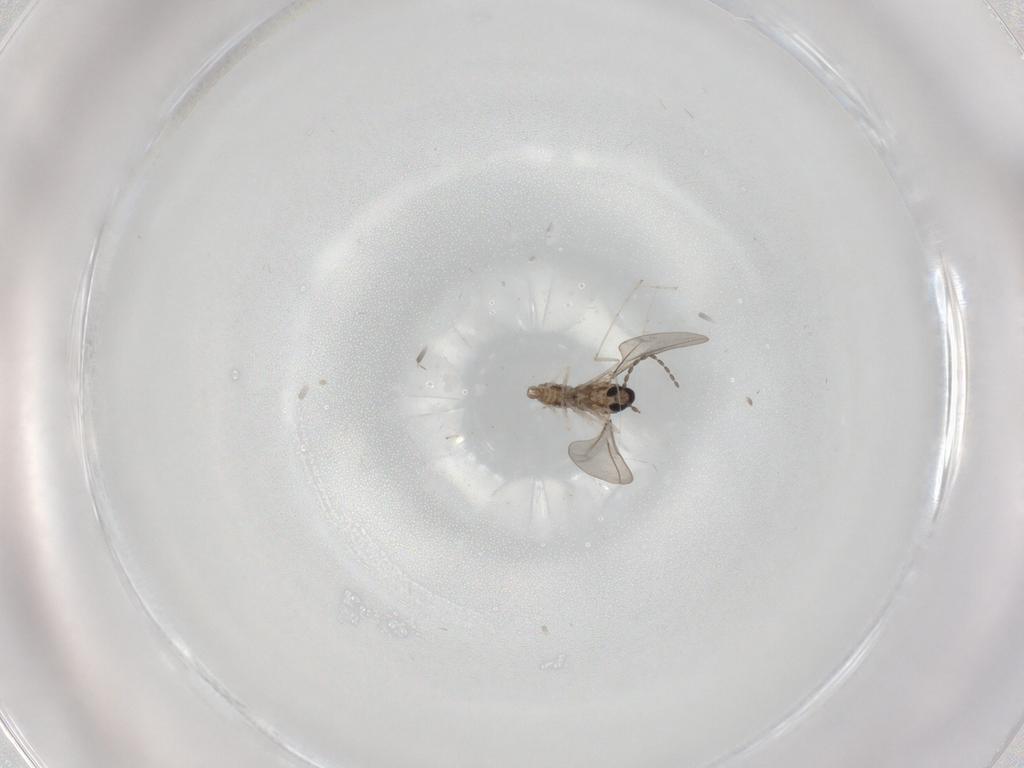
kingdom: Animalia
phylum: Arthropoda
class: Insecta
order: Diptera
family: Cecidomyiidae
